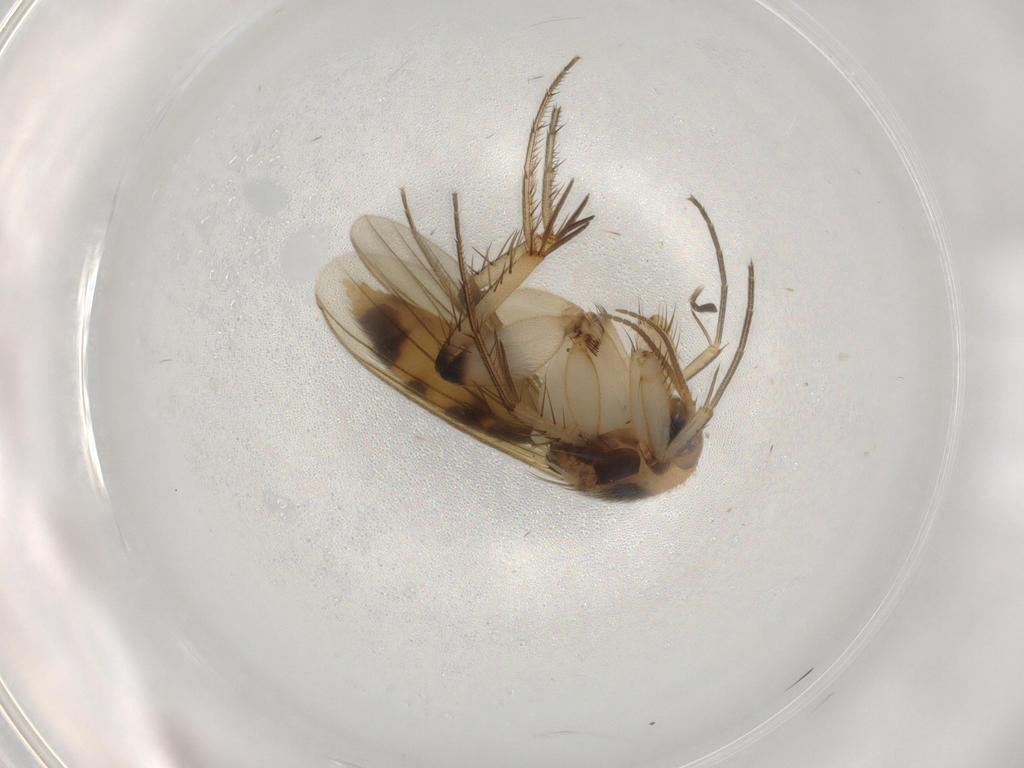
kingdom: Animalia
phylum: Arthropoda
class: Insecta
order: Diptera
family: Mycetophilidae
